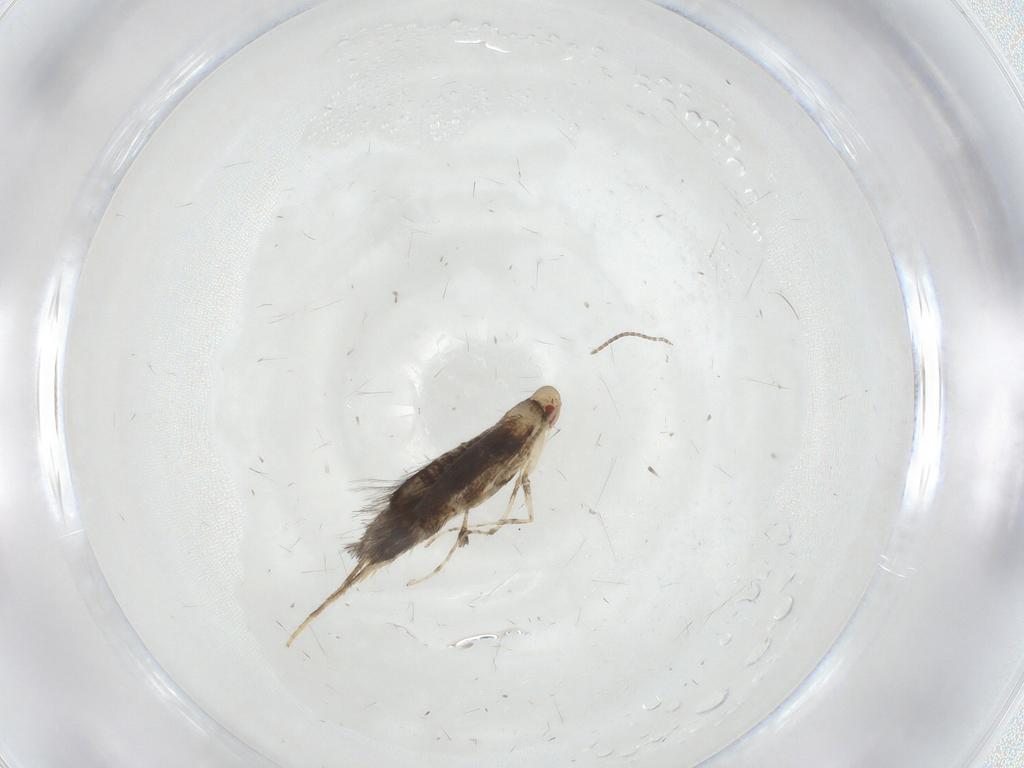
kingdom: Animalia
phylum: Arthropoda
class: Insecta
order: Lepidoptera
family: Gracillariidae
